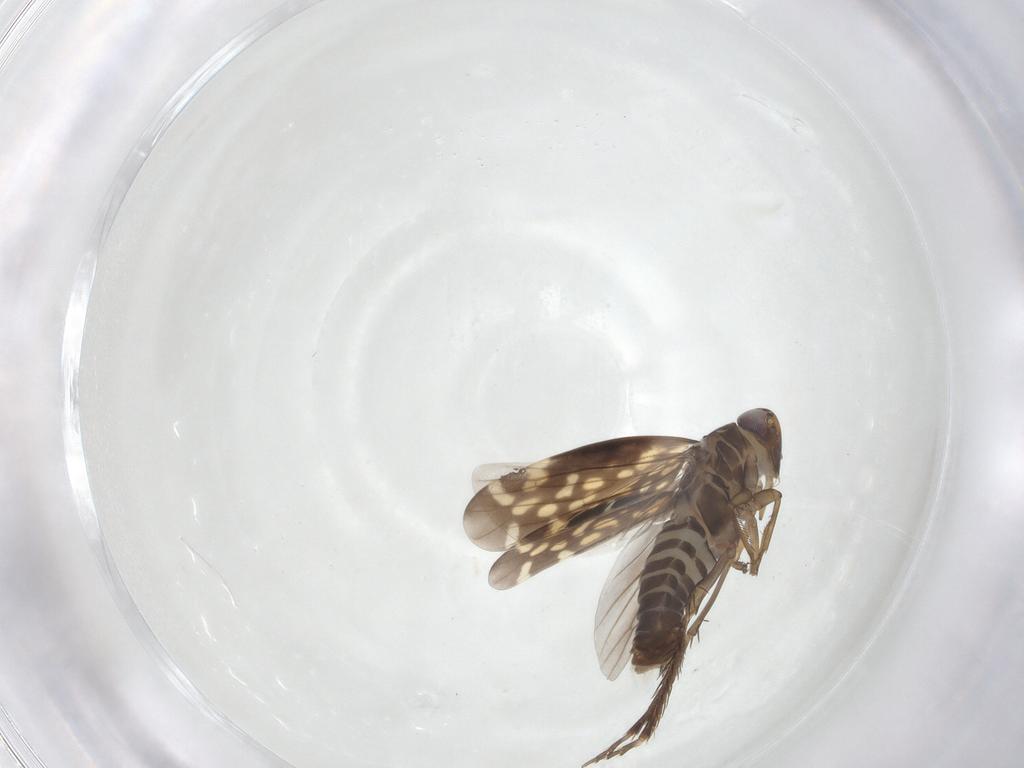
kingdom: Animalia
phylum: Arthropoda
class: Insecta
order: Hemiptera
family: Cicadellidae
